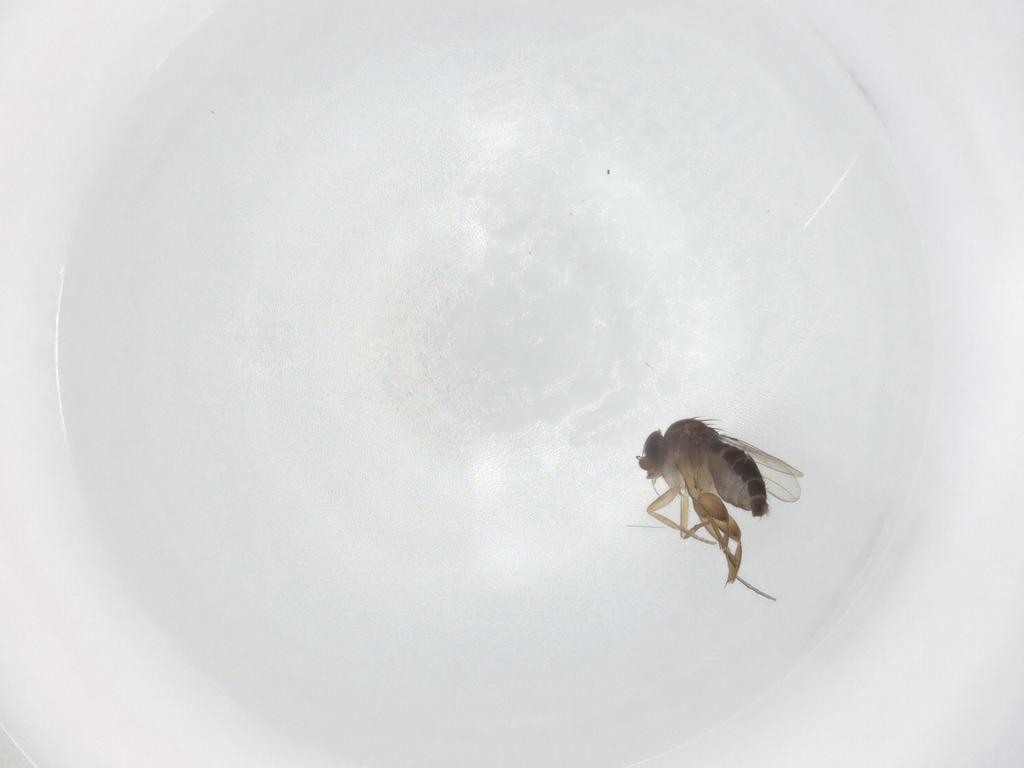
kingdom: Animalia
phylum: Arthropoda
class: Insecta
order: Diptera
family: Phoridae
